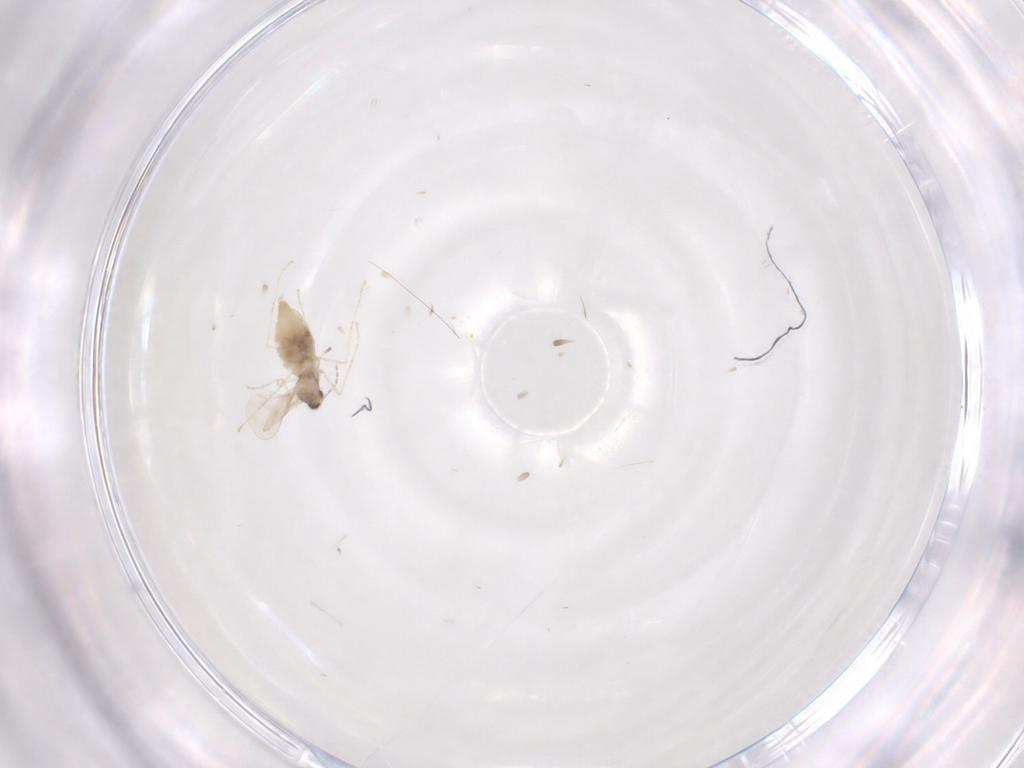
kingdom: Animalia
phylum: Arthropoda
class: Insecta
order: Diptera
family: Cecidomyiidae
